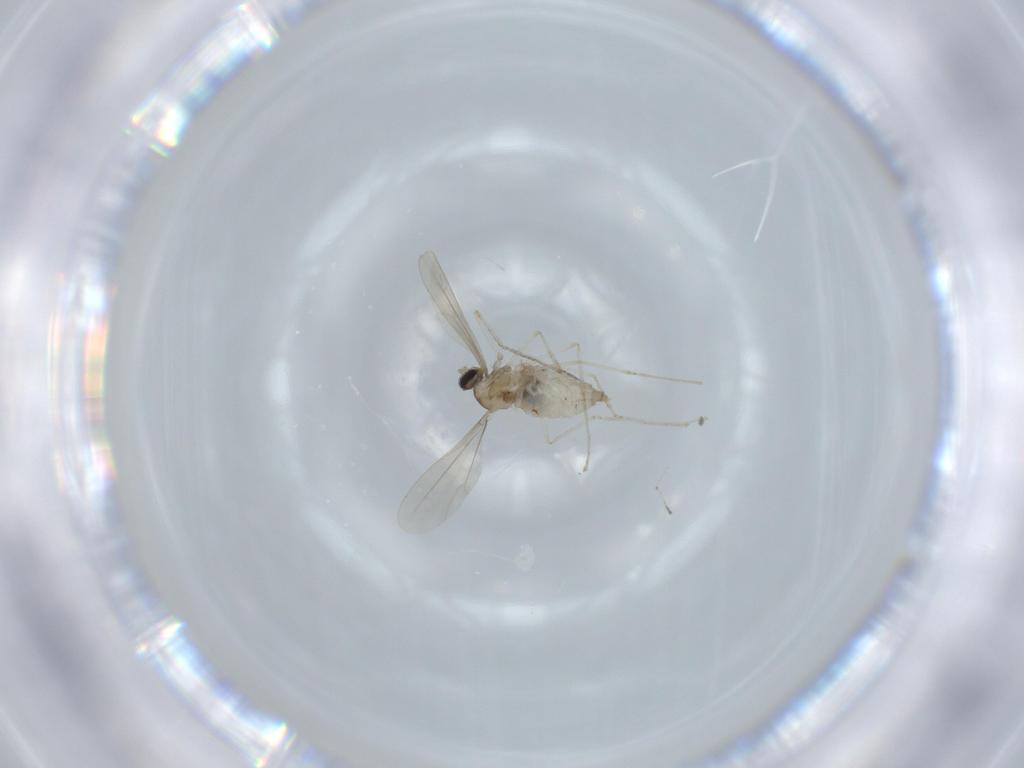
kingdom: Animalia
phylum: Arthropoda
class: Insecta
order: Diptera
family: Cecidomyiidae
